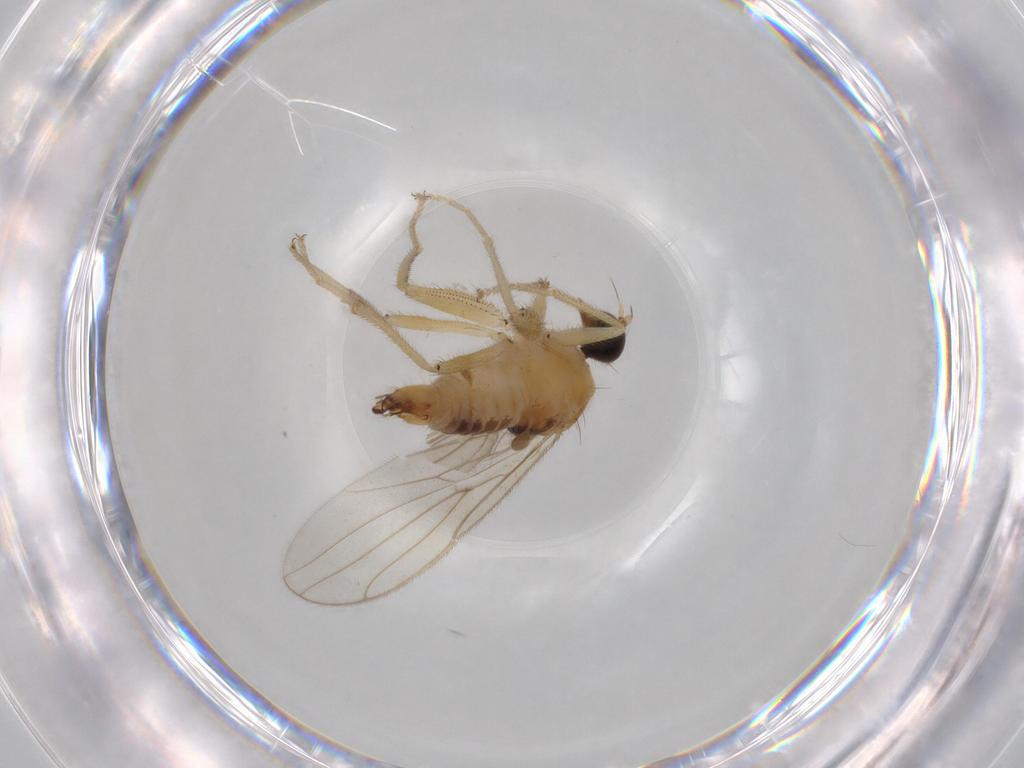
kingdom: Animalia
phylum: Arthropoda
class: Insecta
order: Diptera
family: Hybotidae
